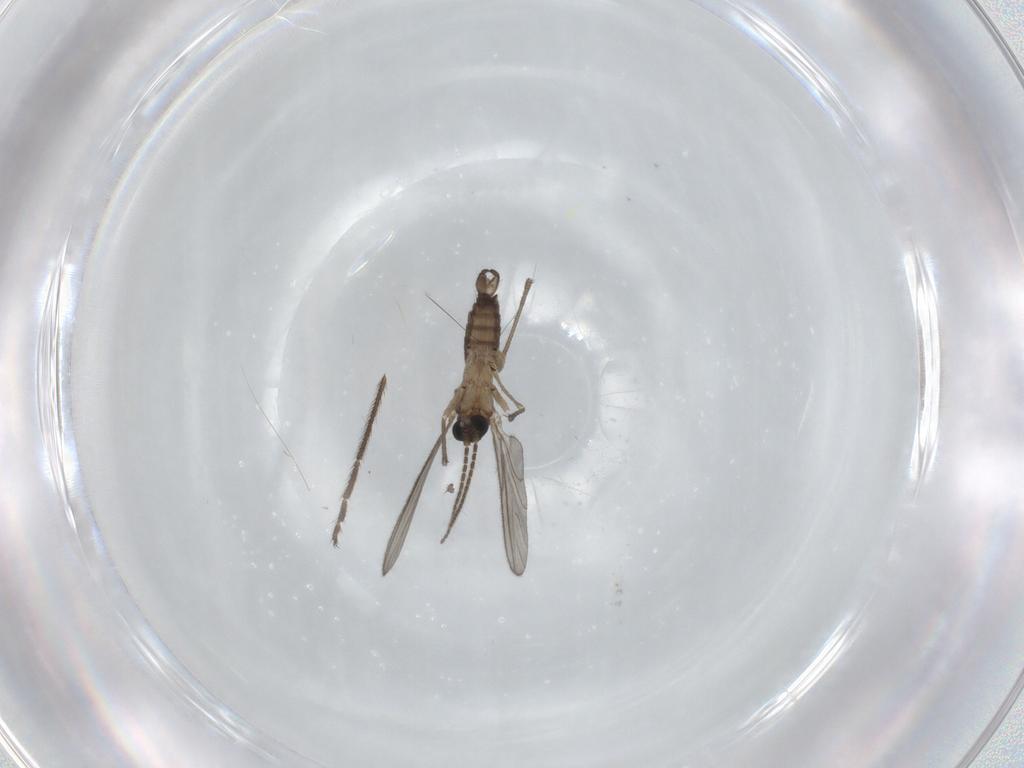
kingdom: Animalia
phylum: Arthropoda
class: Insecta
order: Diptera
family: Sciaridae
